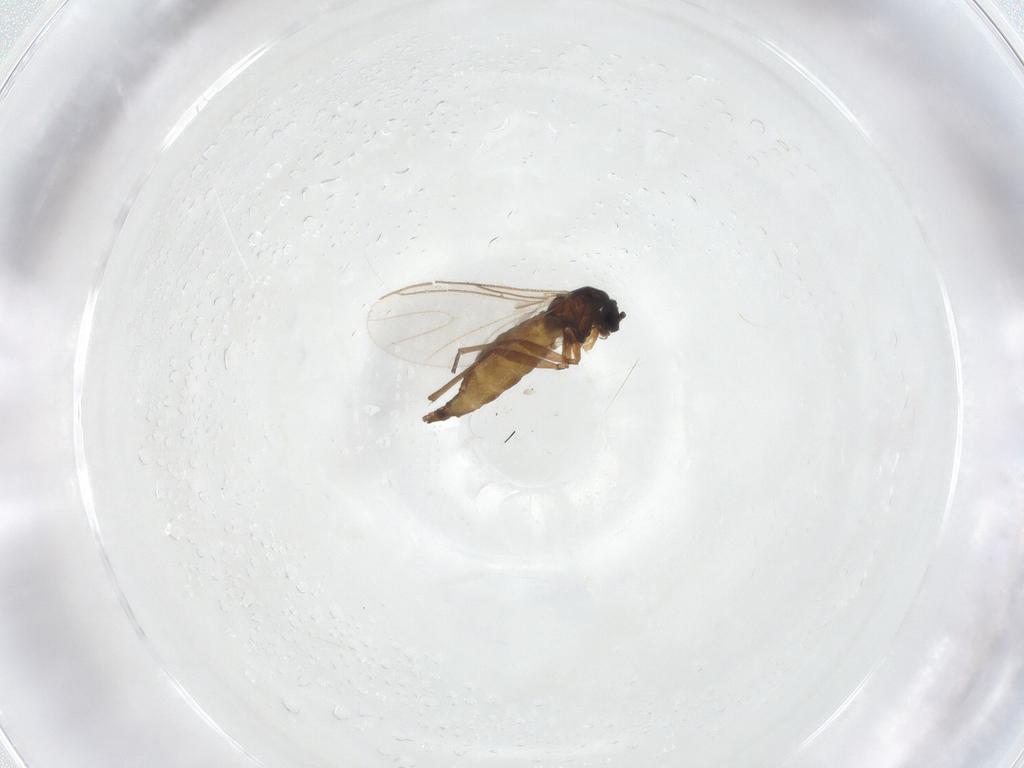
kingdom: Animalia
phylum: Arthropoda
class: Insecta
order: Diptera
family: Sciaridae
